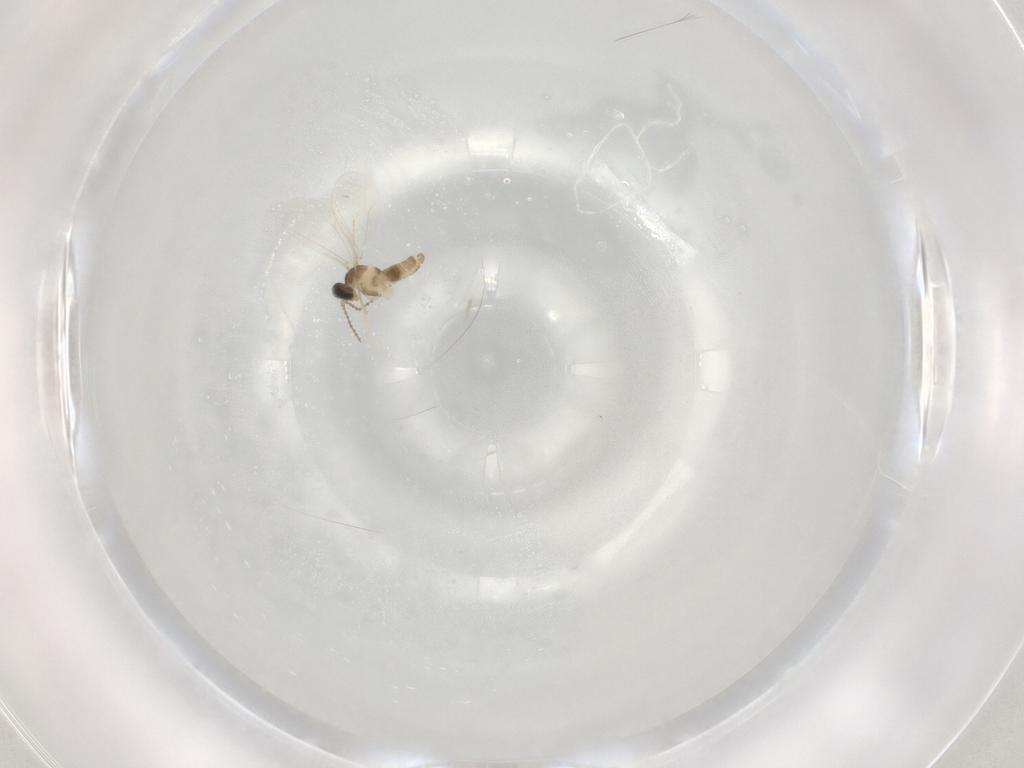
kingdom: Animalia
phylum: Arthropoda
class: Insecta
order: Diptera
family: Cecidomyiidae
